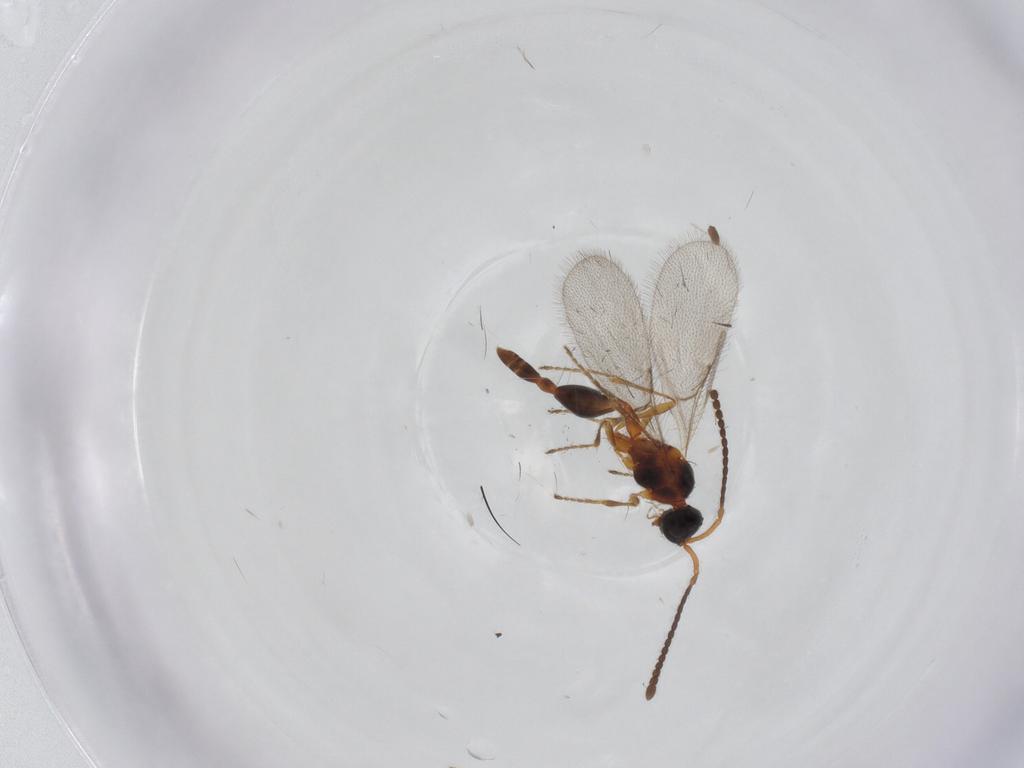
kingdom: Animalia
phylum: Arthropoda
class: Insecta
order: Hymenoptera
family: Diapriidae
